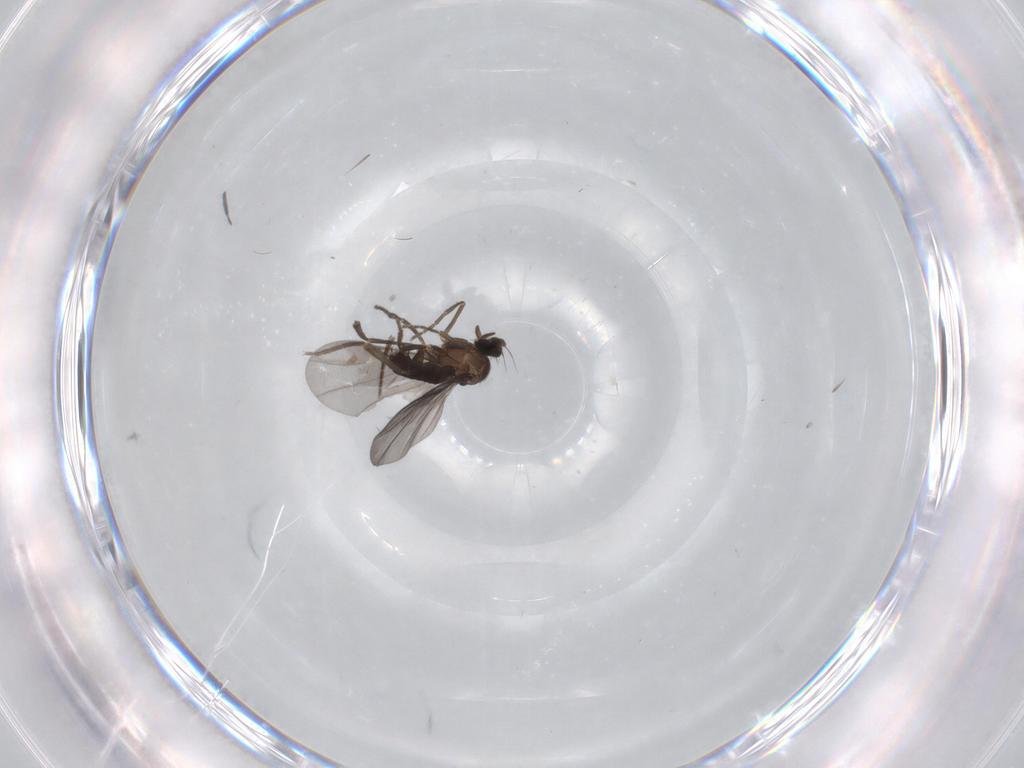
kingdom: Animalia
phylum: Arthropoda
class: Insecta
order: Diptera
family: Phoridae
